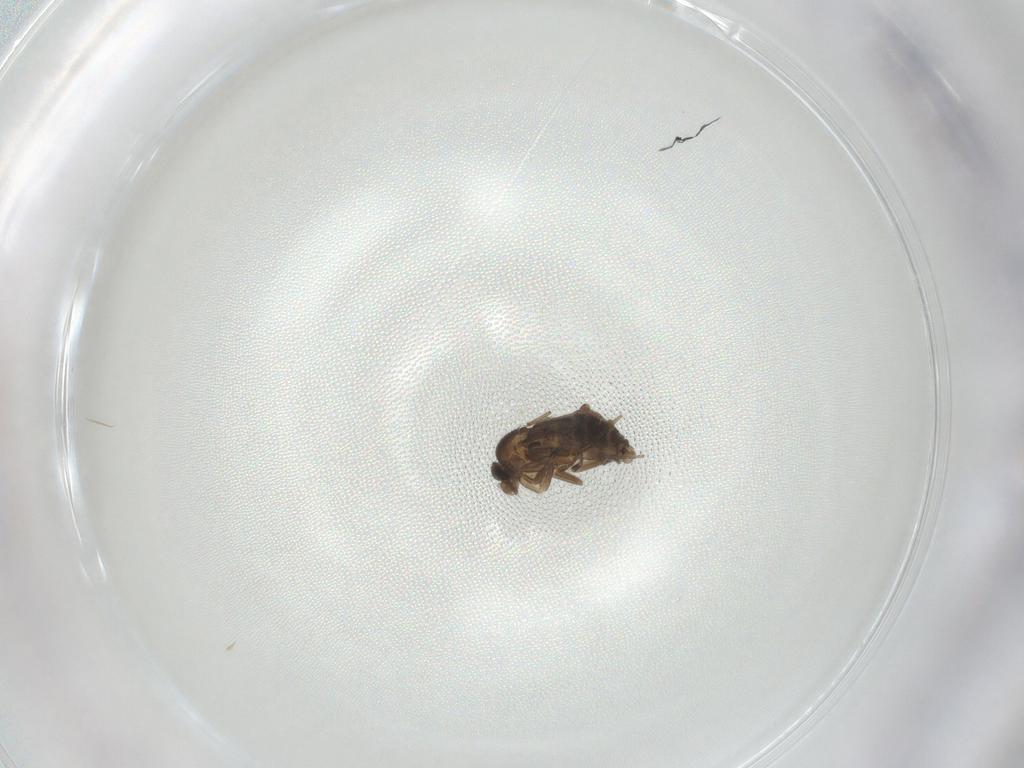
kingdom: Animalia
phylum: Arthropoda
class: Insecta
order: Diptera
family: Phoridae
